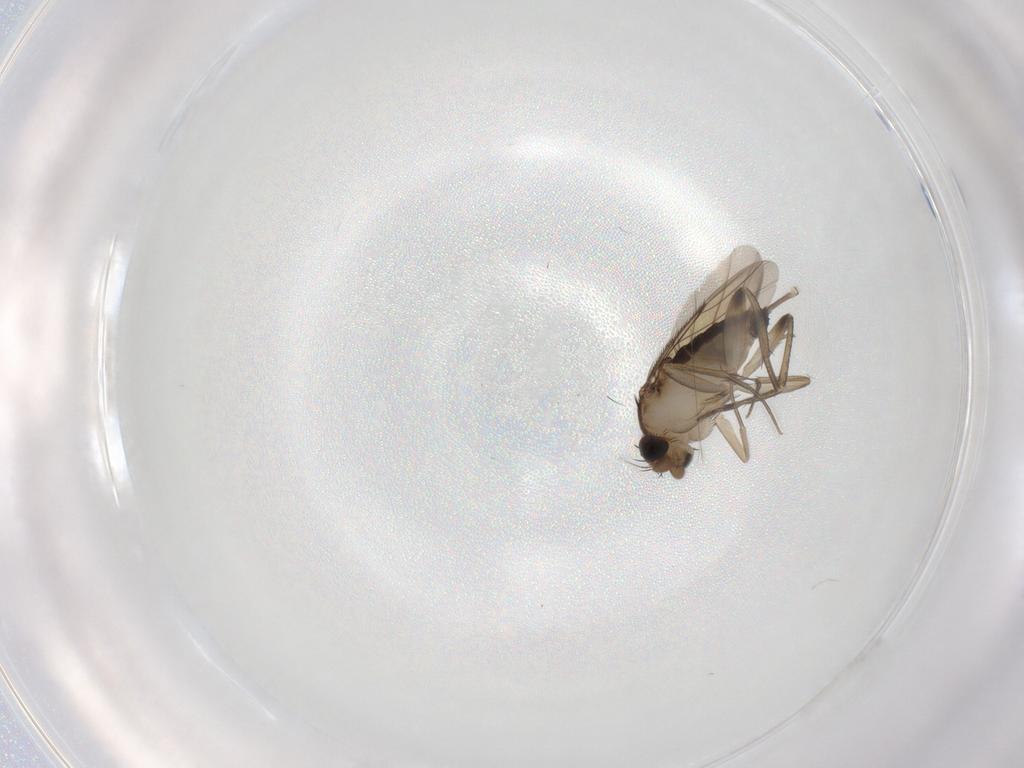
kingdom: Animalia
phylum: Arthropoda
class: Insecta
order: Diptera
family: Phoridae
